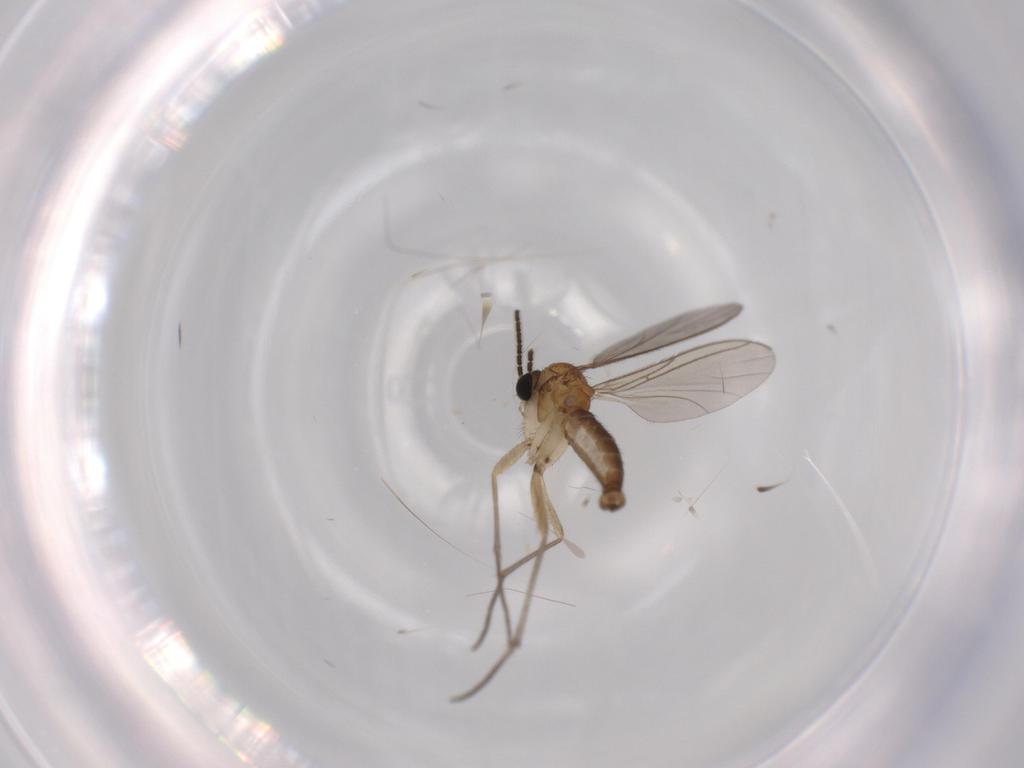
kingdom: Animalia
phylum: Arthropoda
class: Insecta
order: Diptera
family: Sciaridae
